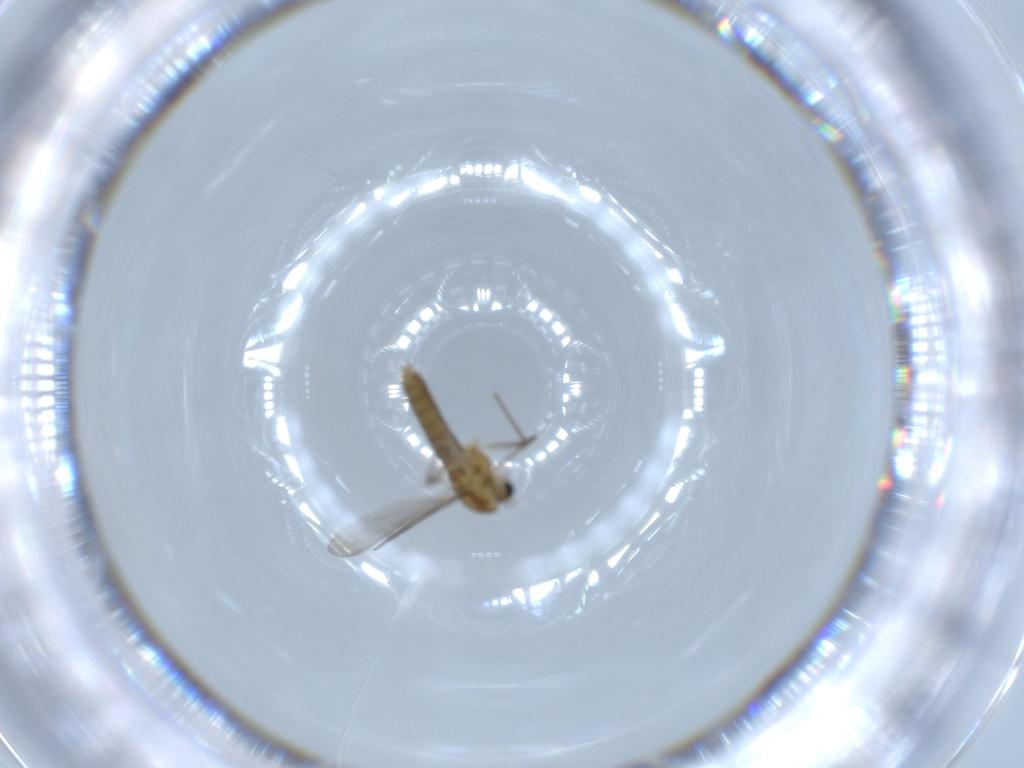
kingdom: Animalia
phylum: Arthropoda
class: Insecta
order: Diptera
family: Chironomidae
